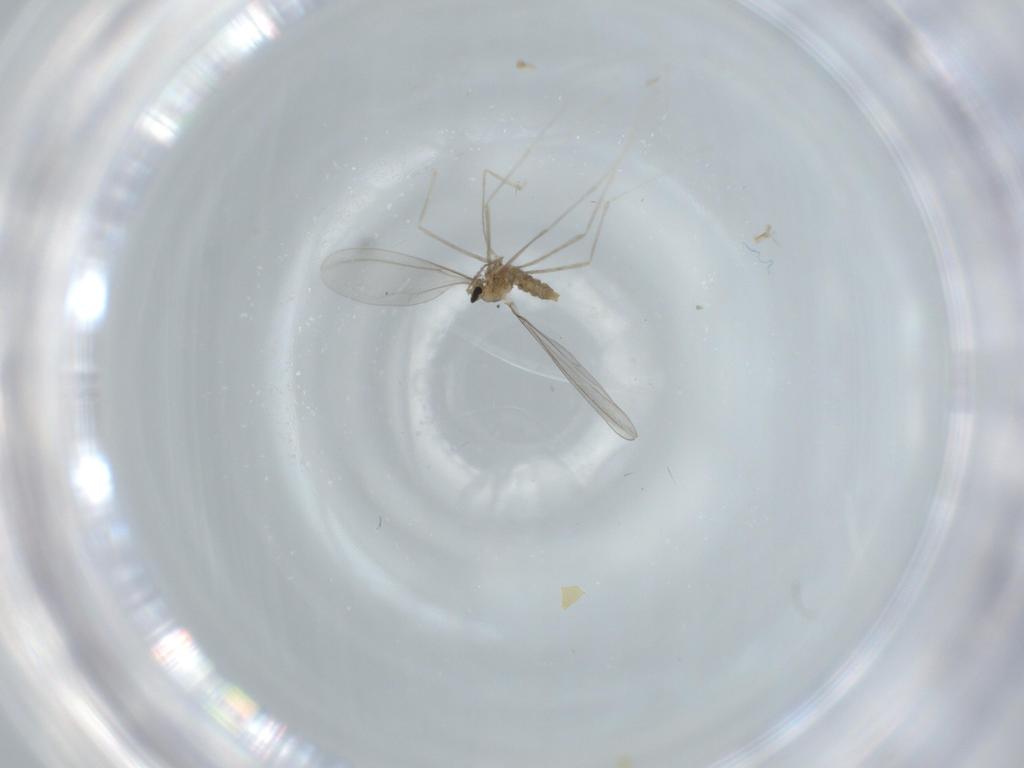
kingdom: Animalia
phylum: Arthropoda
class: Insecta
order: Diptera
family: Cecidomyiidae
